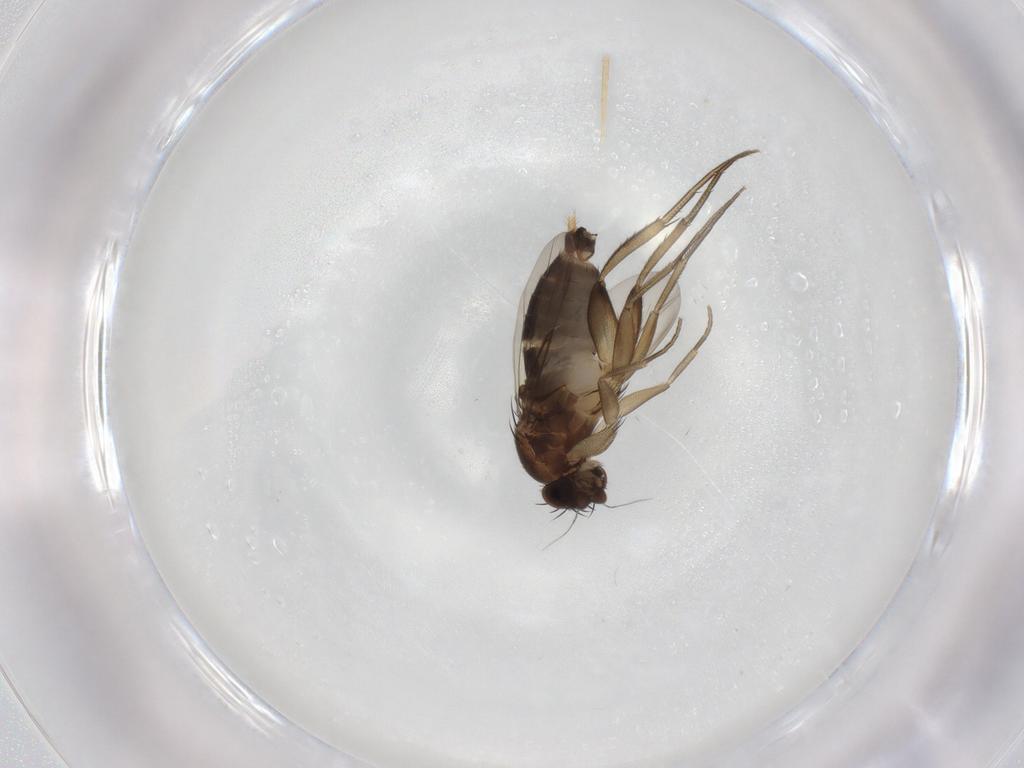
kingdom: Animalia
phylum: Arthropoda
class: Insecta
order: Diptera
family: Phoridae
